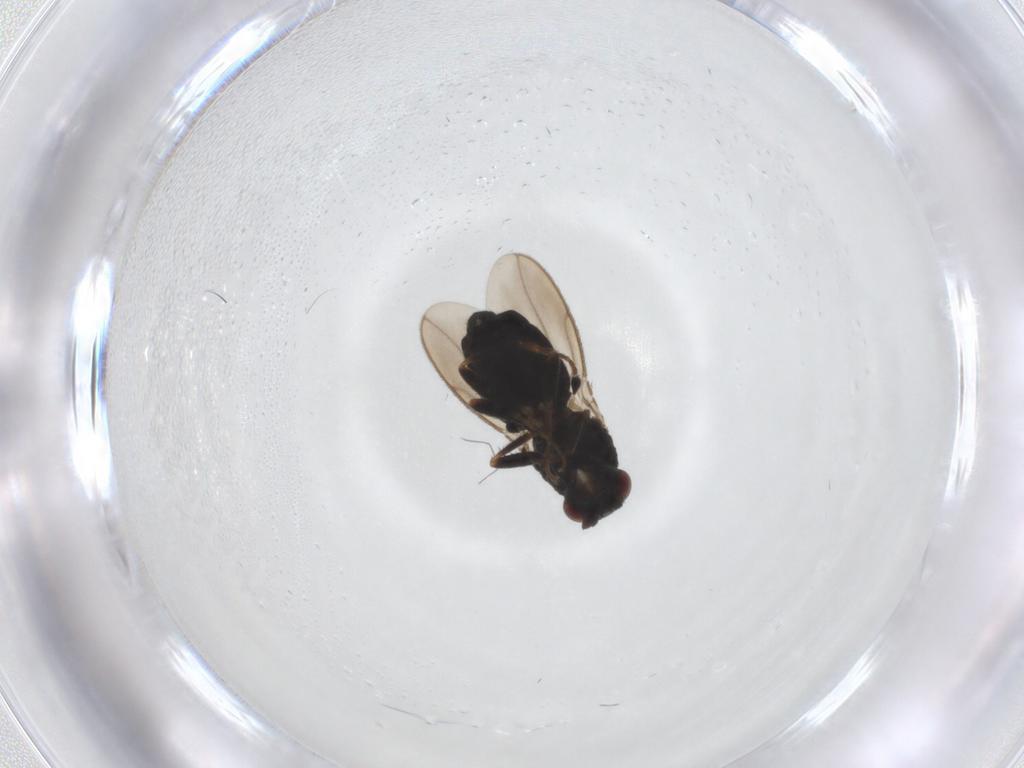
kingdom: Animalia
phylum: Arthropoda
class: Insecta
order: Diptera
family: Sphaeroceridae
